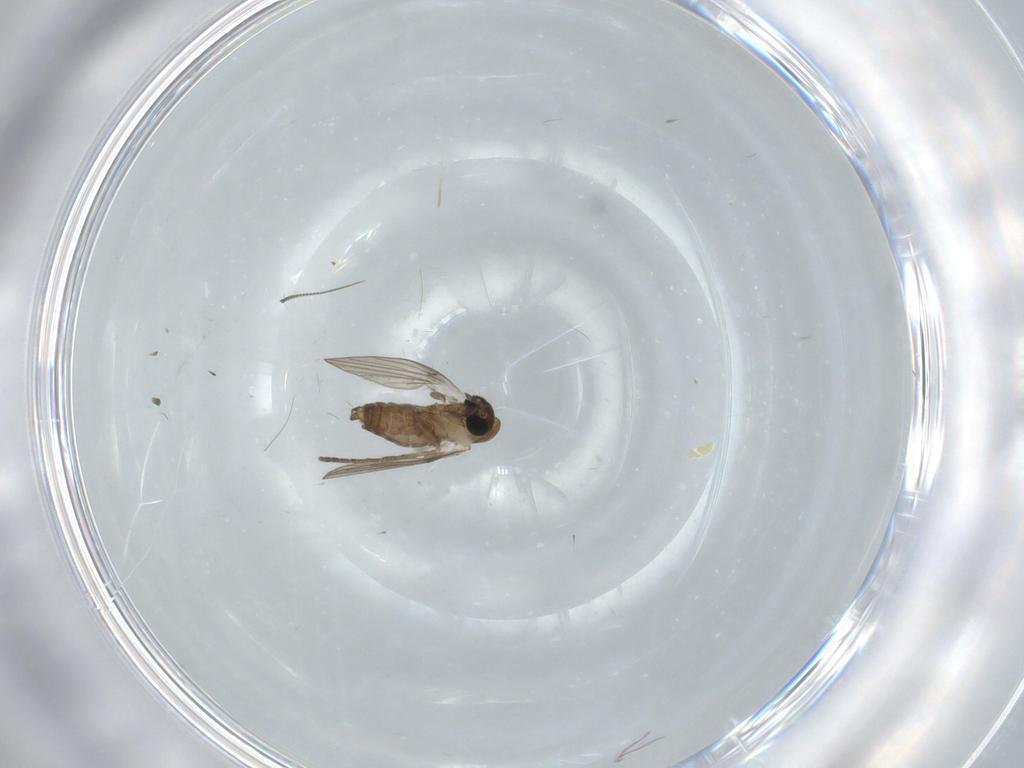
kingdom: Animalia
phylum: Arthropoda
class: Insecta
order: Diptera
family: Psychodidae
